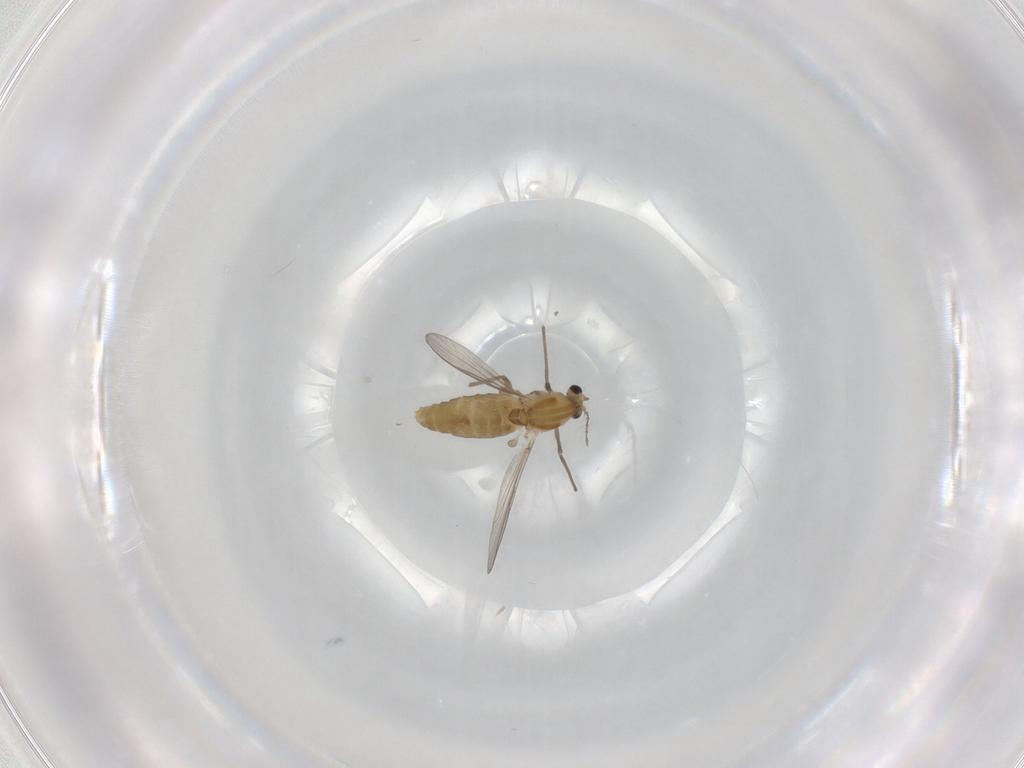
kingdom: Animalia
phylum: Arthropoda
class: Insecta
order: Diptera
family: Chironomidae
